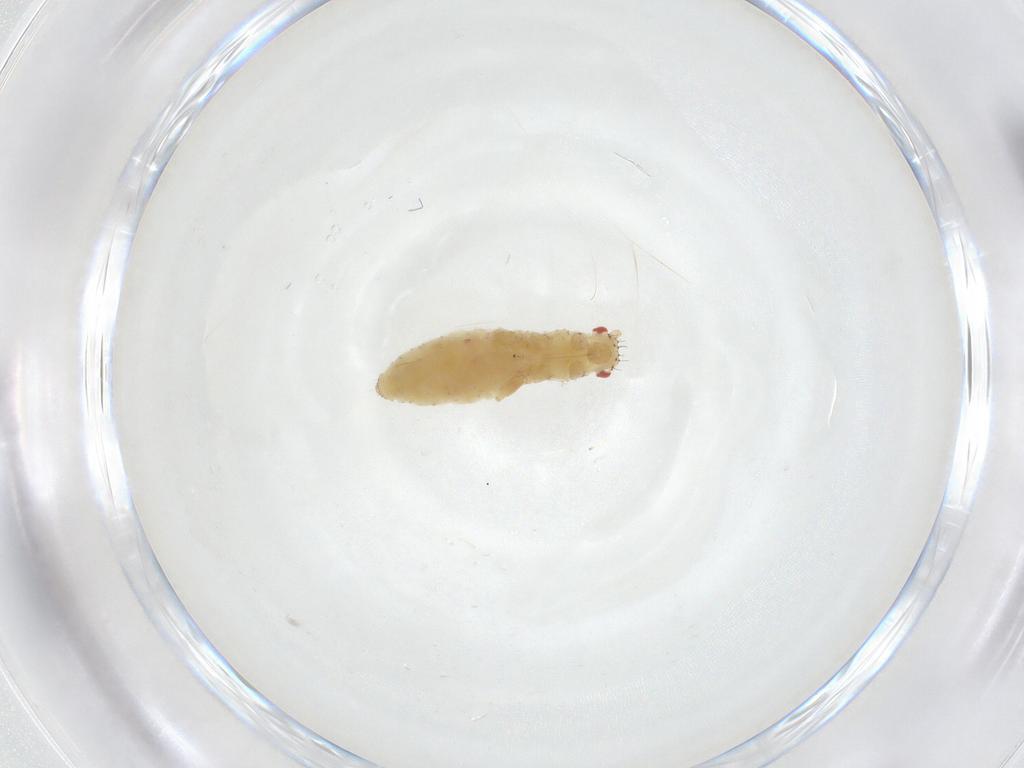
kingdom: Animalia
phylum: Arthropoda
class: Insecta
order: Hemiptera
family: Aphididae
